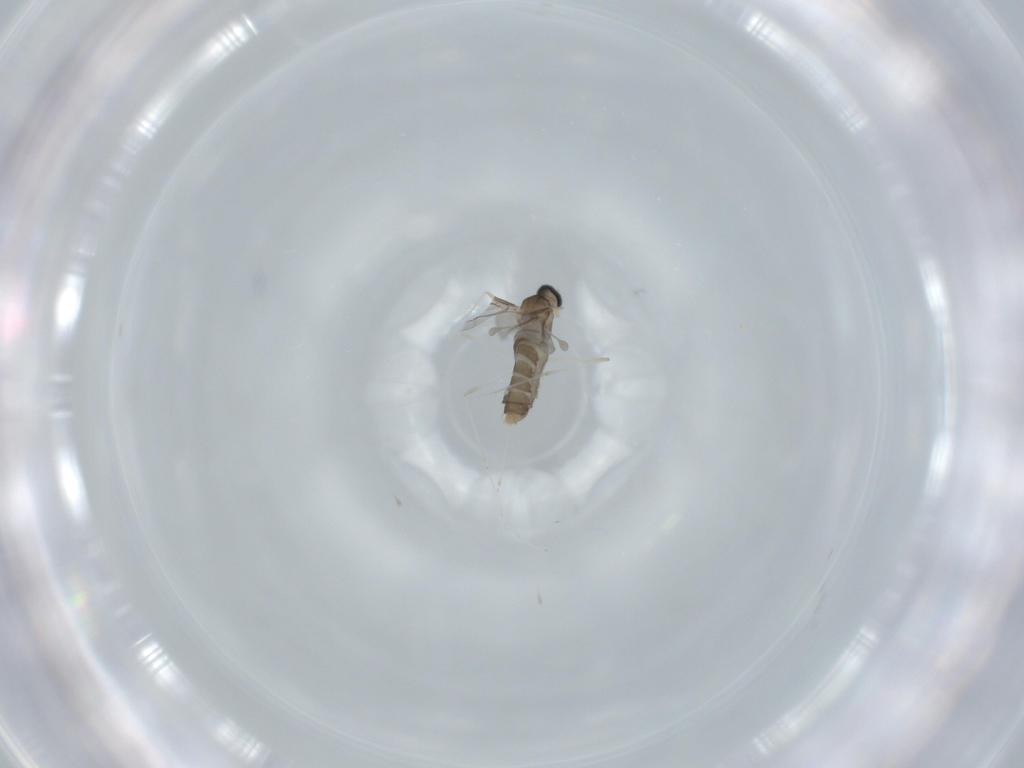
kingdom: Animalia
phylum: Arthropoda
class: Insecta
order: Diptera
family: Cecidomyiidae
